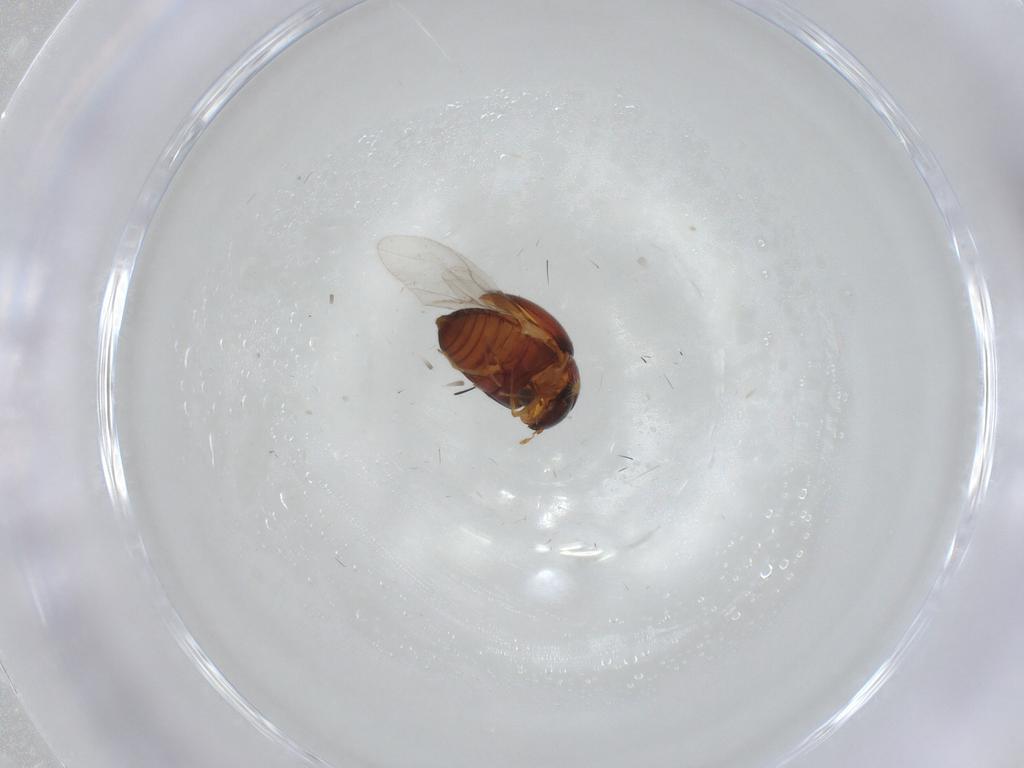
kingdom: Animalia
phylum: Arthropoda
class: Insecta
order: Coleoptera
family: Clambidae
